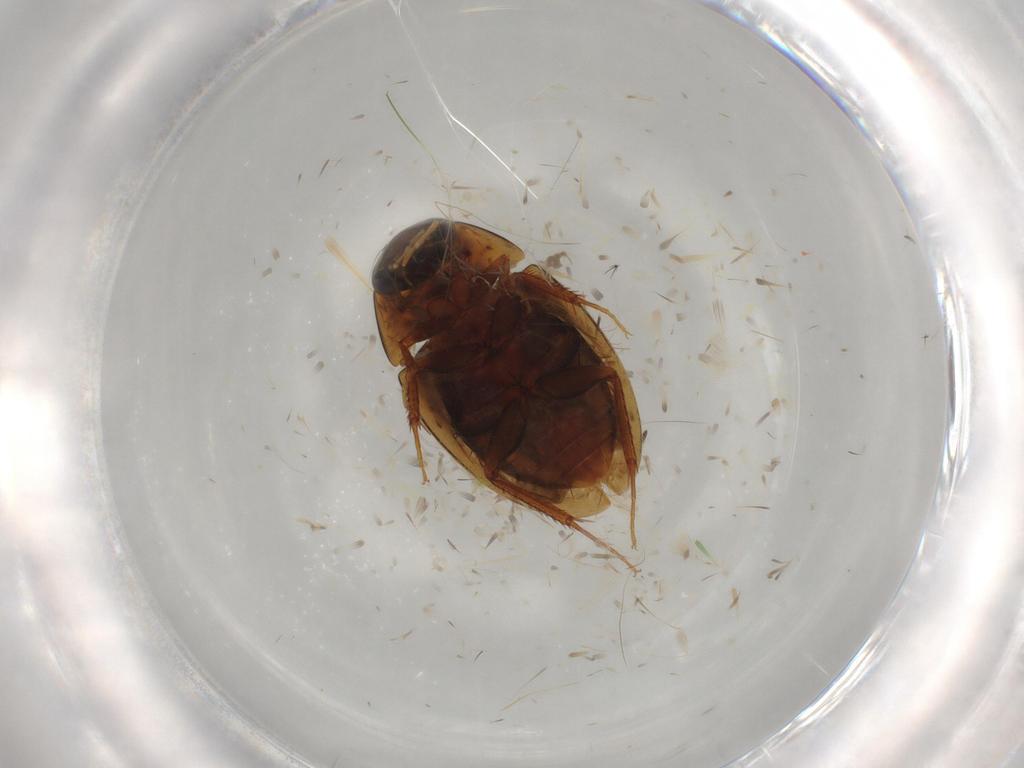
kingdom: Animalia
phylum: Arthropoda
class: Insecta
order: Coleoptera
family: Hydrophilidae
